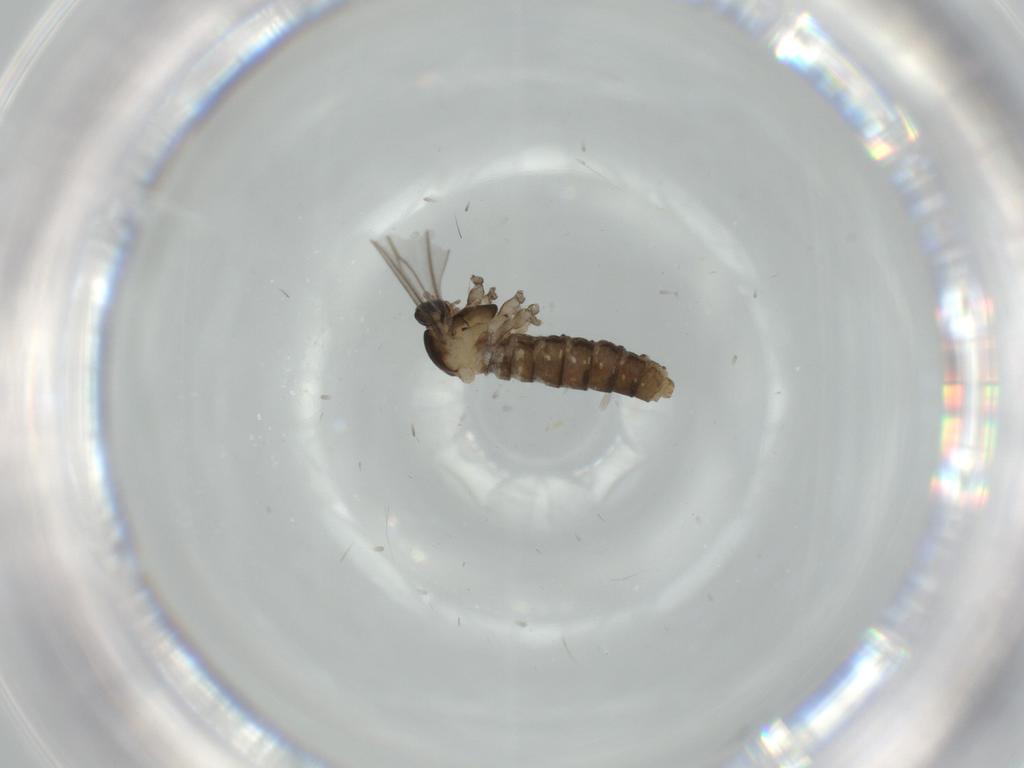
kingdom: Animalia
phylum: Arthropoda
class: Insecta
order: Diptera
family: Cecidomyiidae
